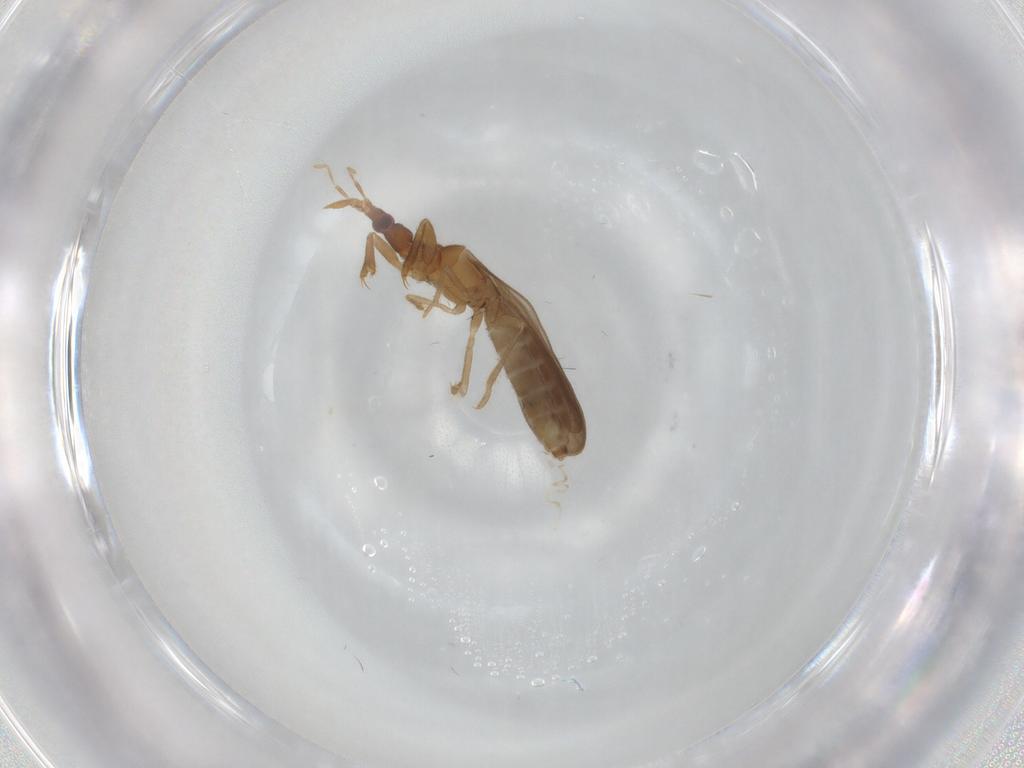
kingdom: Animalia
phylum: Arthropoda
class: Insecta
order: Hemiptera
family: Enicocephalidae
